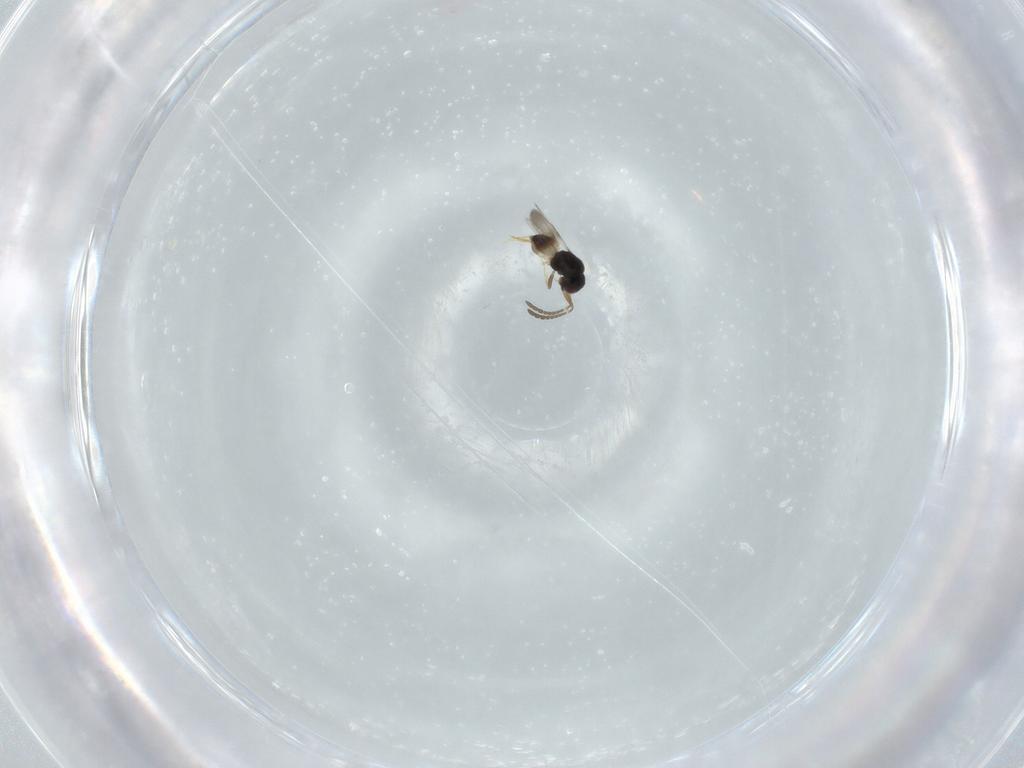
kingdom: Animalia
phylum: Arthropoda
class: Insecta
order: Hymenoptera
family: Ceraphronidae
